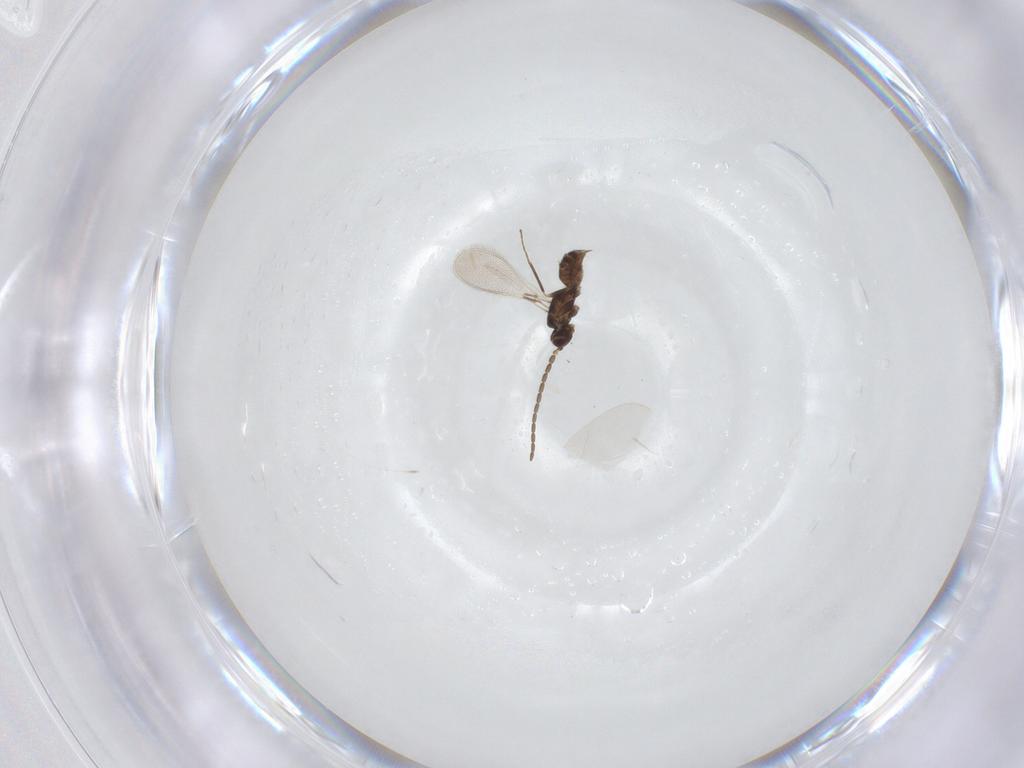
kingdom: Animalia
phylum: Arthropoda
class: Insecta
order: Hymenoptera
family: Mymaridae
